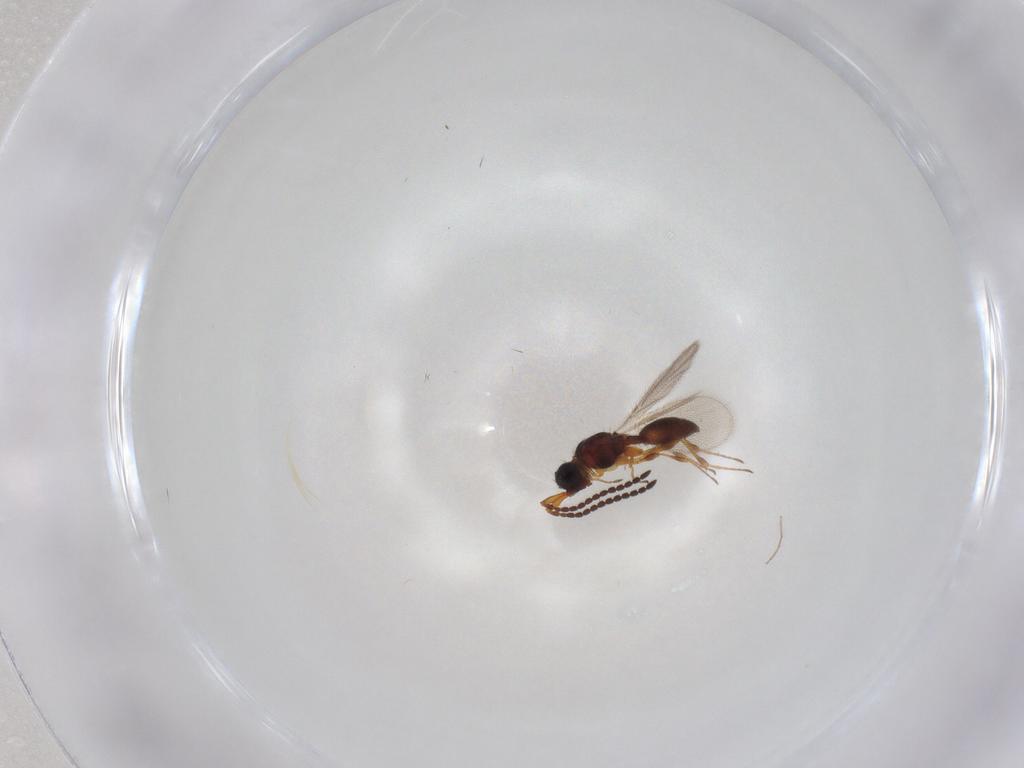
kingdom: Animalia
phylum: Arthropoda
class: Insecta
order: Hymenoptera
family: Diapriidae
